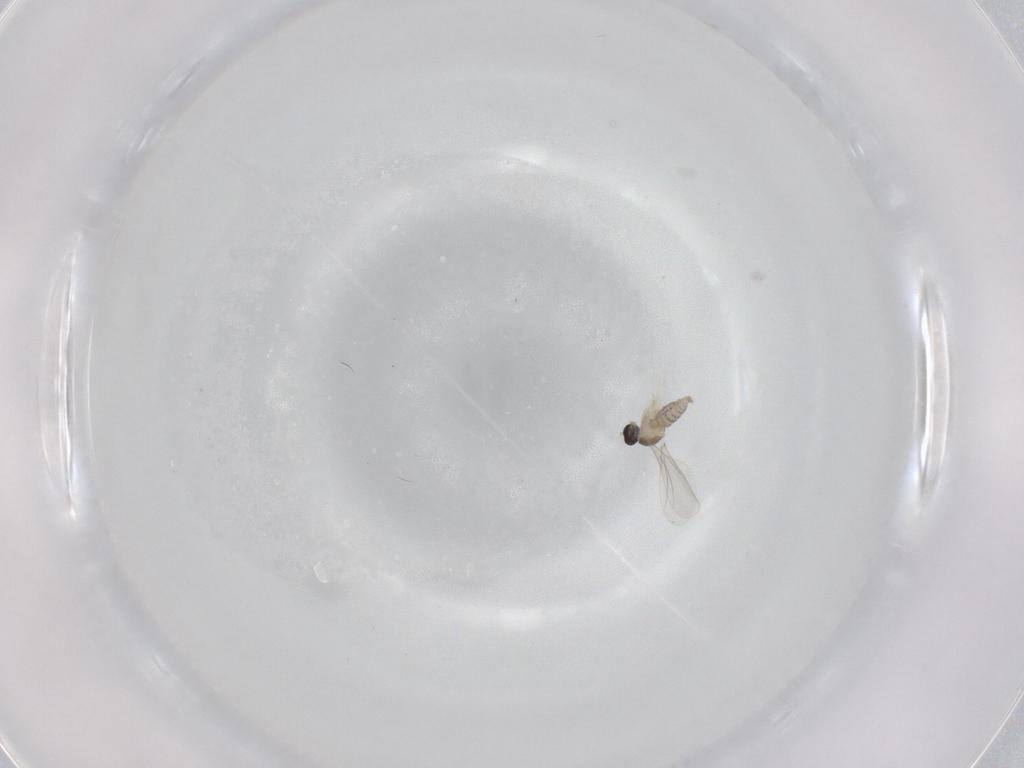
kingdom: Animalia
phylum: Arthropoda
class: Insecta
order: Diptera
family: Cecidomyiidae
